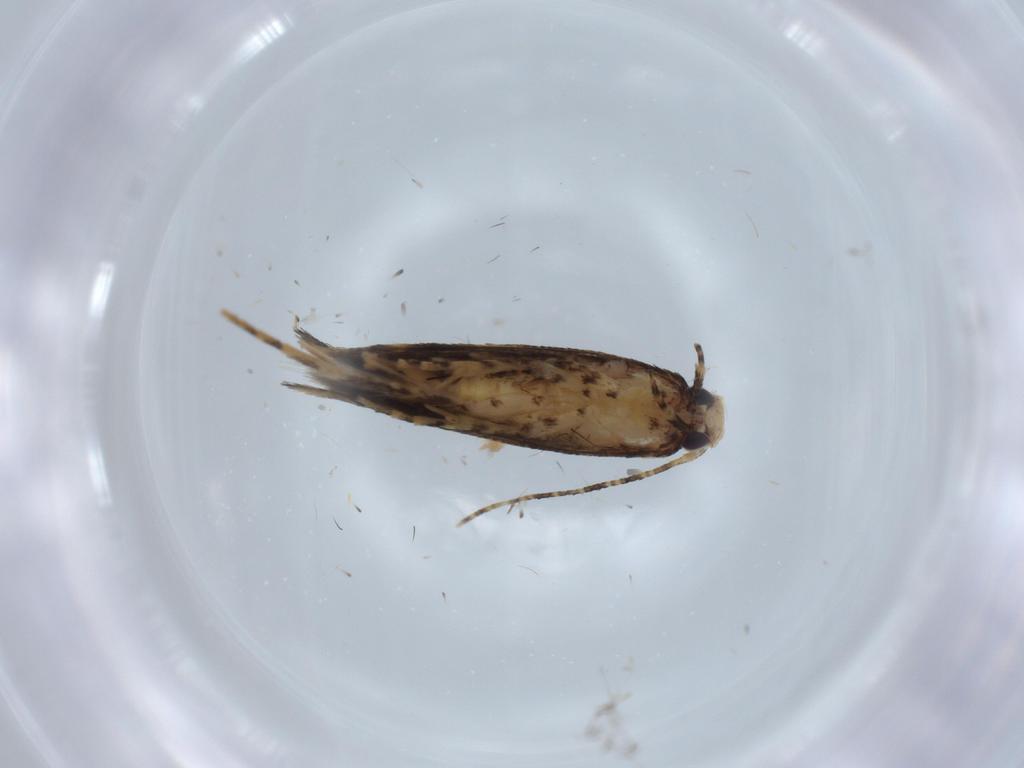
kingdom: Animalia
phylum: Arthropoda
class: Insecta
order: Lepidoptera
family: Gelechiidae
